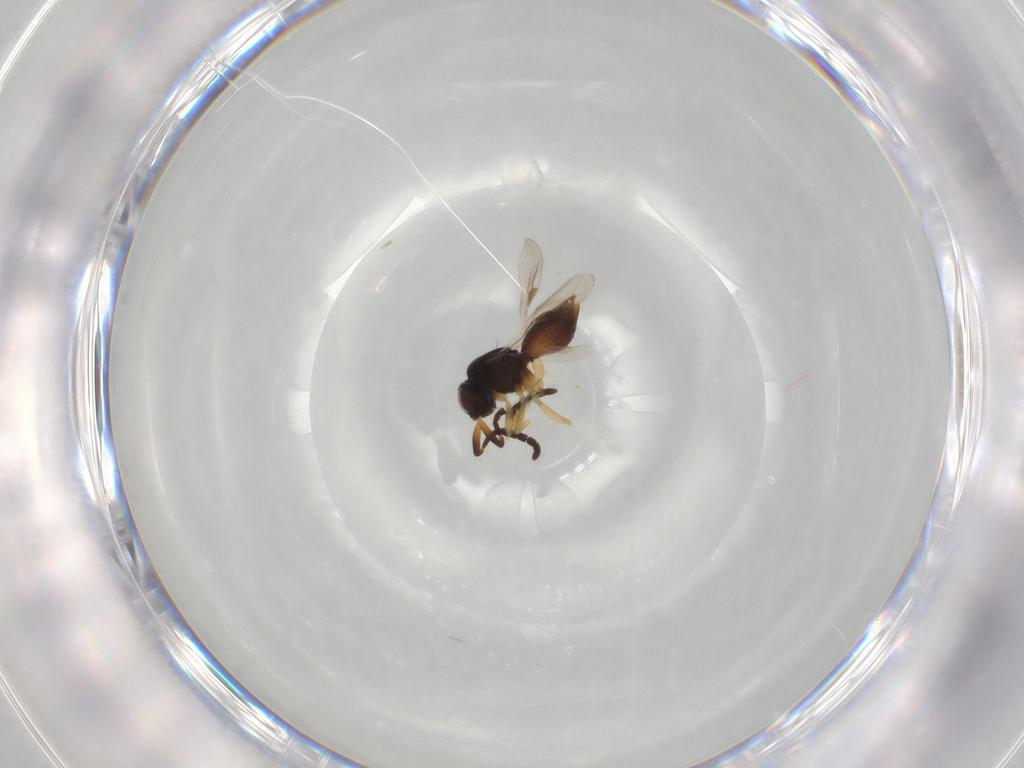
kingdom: Animalia
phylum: Arthropoda
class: Insecta
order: Hymenoptera
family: Megaspilidae
